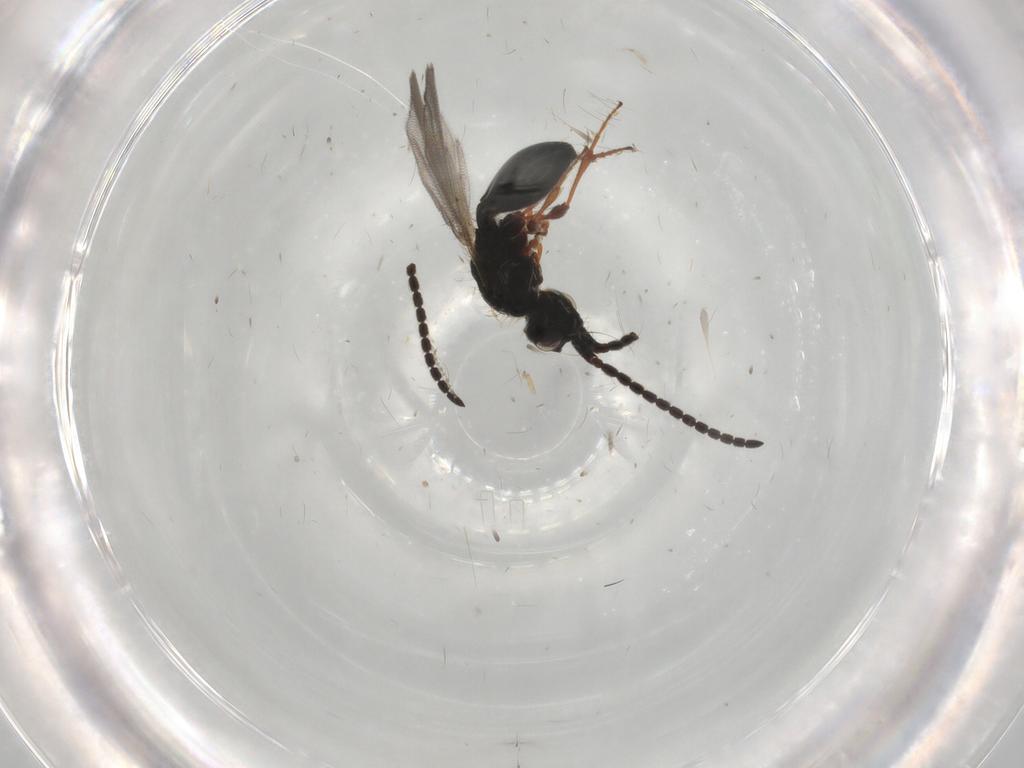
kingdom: Animalia
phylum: Arthropoda
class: Insecta
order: Hymenoptera
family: Diapriidae
